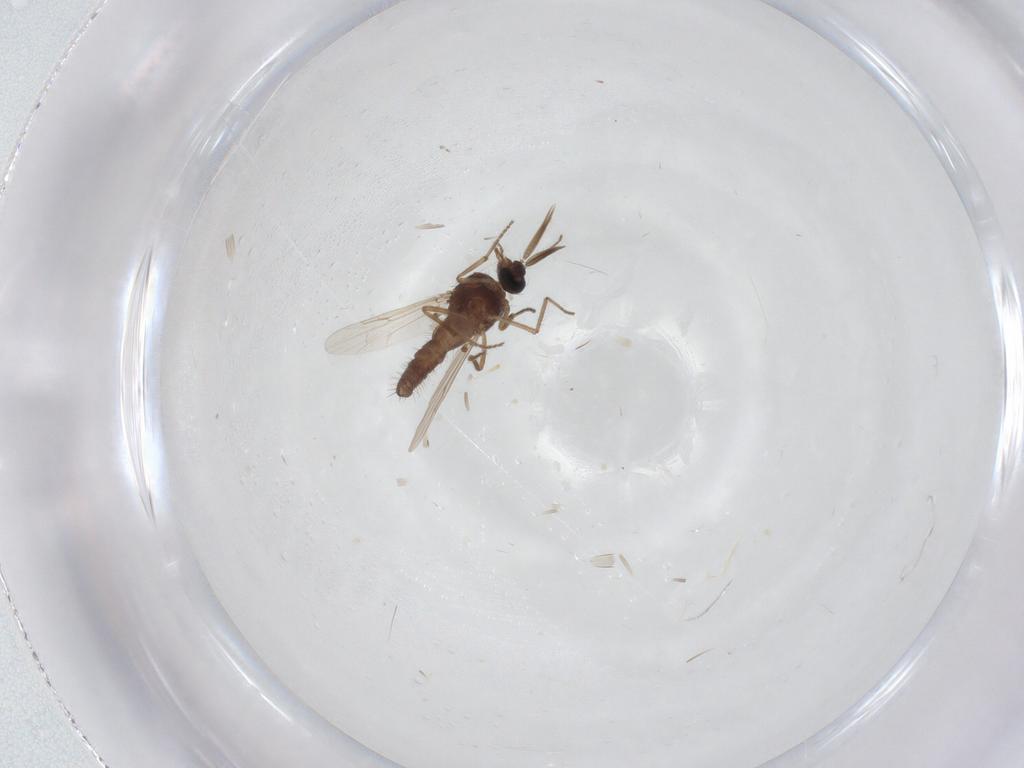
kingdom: Animalia
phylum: Arthropoda
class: Insecta
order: Diptera
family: Ceratopogonidae
